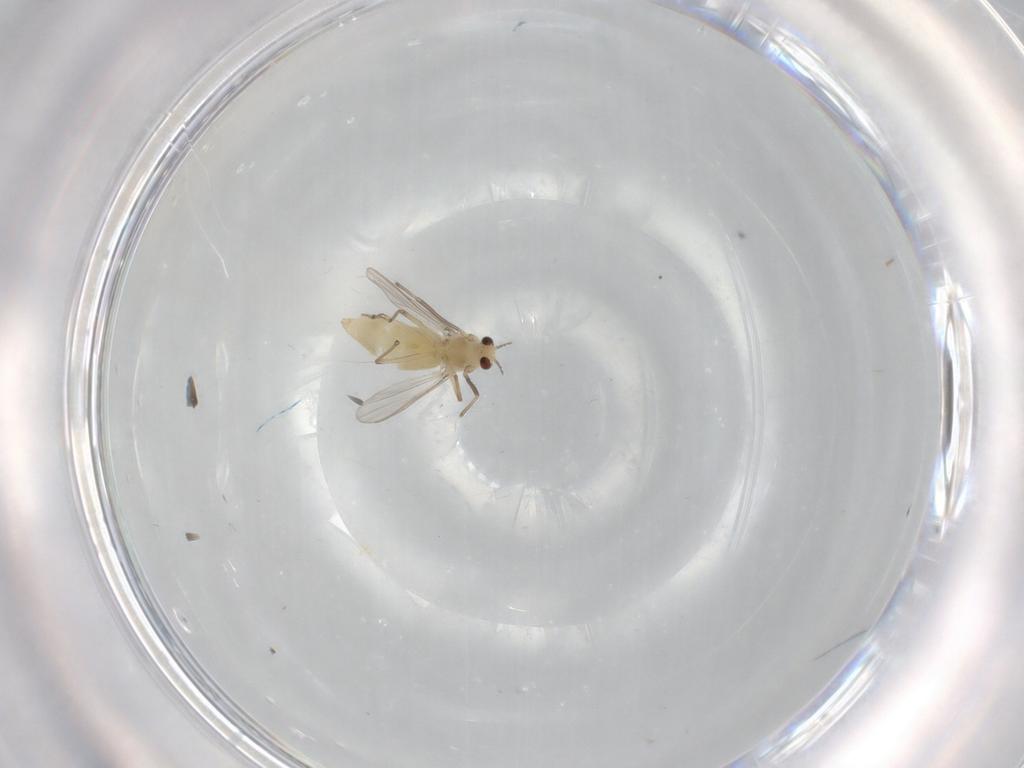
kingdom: Animalia
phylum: Arthropoda
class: Insecta
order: Diptera
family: Chironomidae
